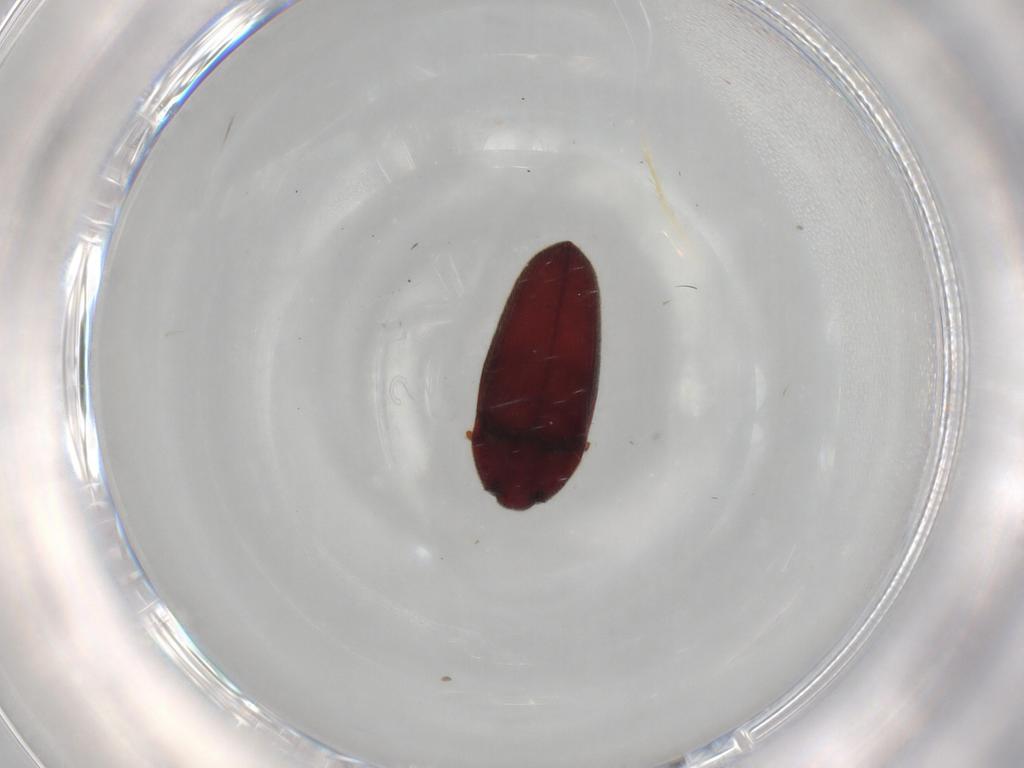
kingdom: Animalia
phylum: Arthropoda
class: Insecta
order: Coleoptera
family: Throscidae
